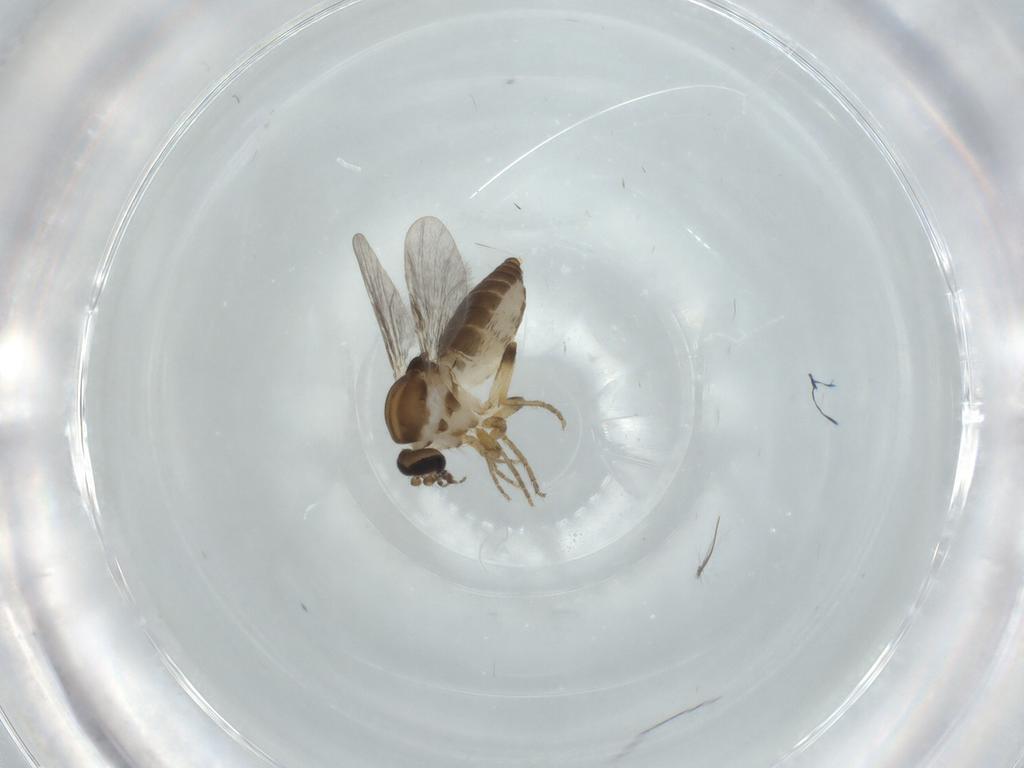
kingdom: Animalia
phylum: Arthropoda
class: Insecta
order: Diptera
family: Ceratopogonidae
